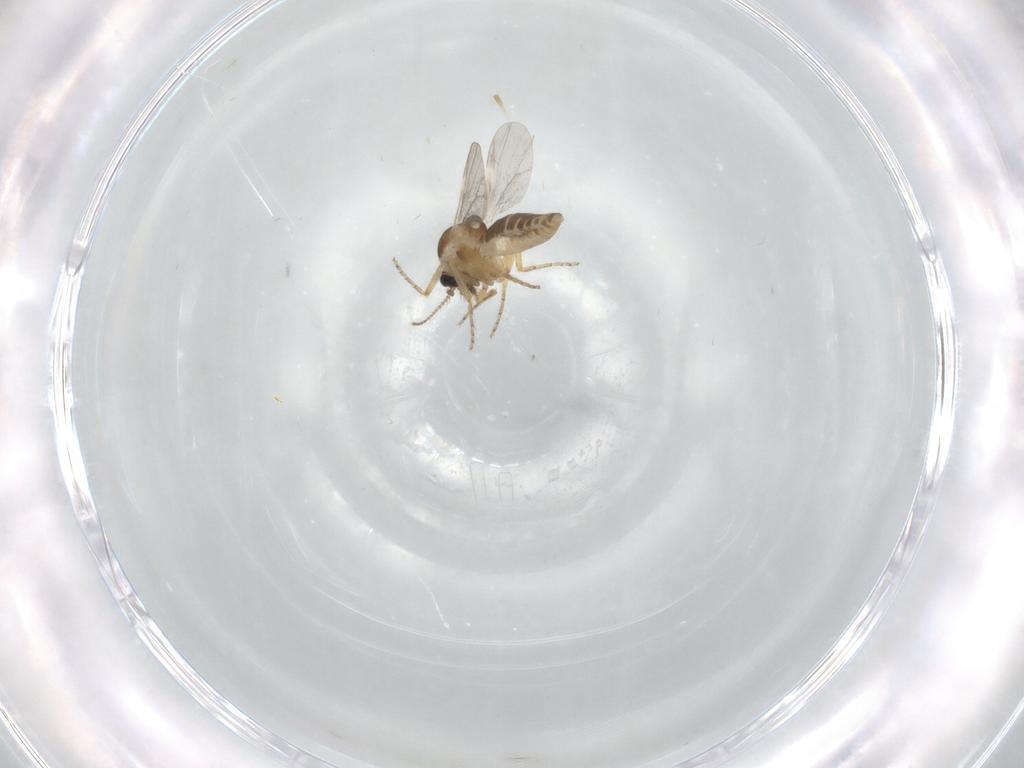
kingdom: Animalia
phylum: Arthropoda
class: Insecta
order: Diptera
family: Ceratopogonidae
